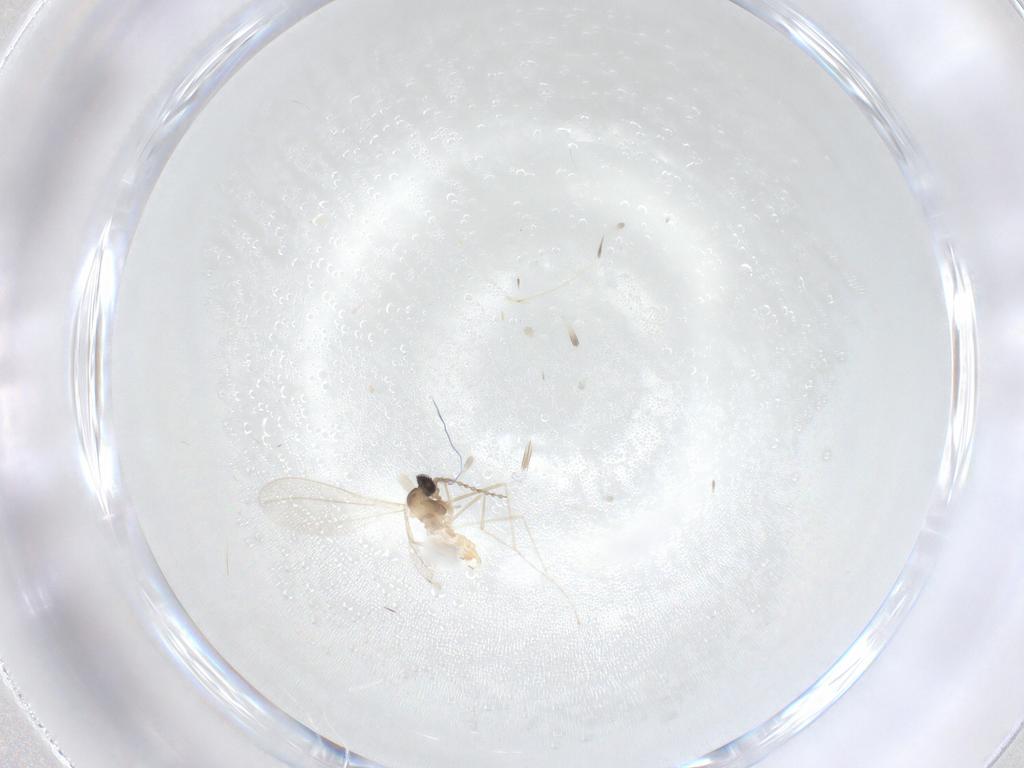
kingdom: Animalia
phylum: Arthropoda
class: Insecta
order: Diptera
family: Cecidomyiidae
